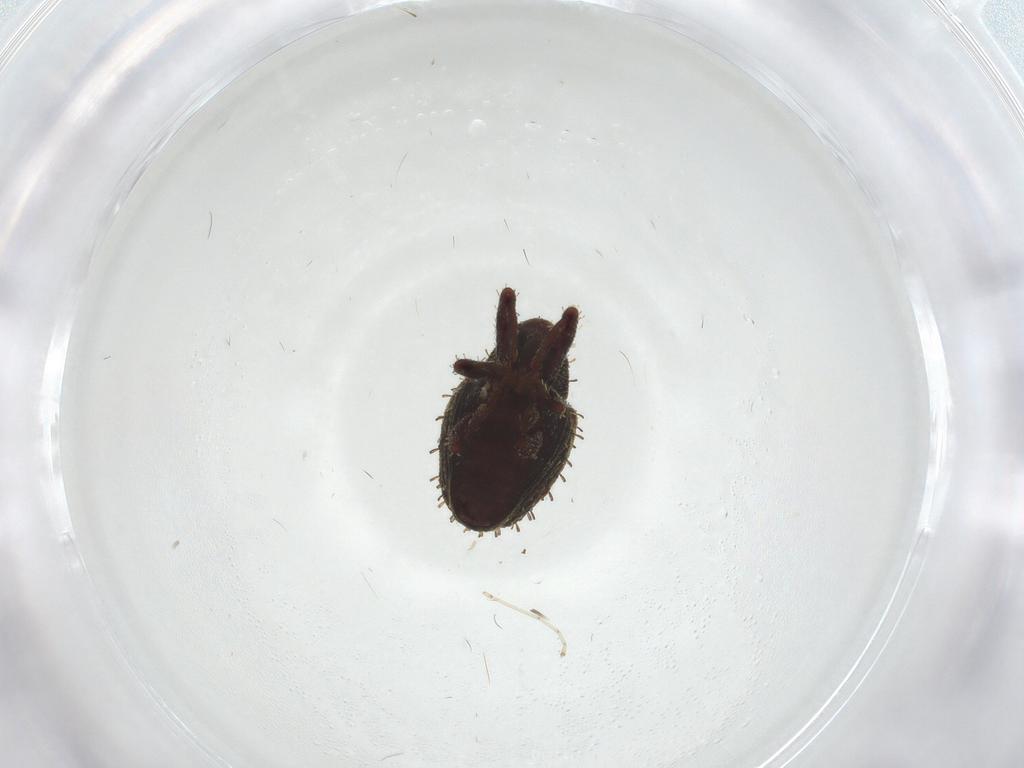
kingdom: Animalia
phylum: Arthropoda
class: Insecta
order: Coleoptera
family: Curculionidae
